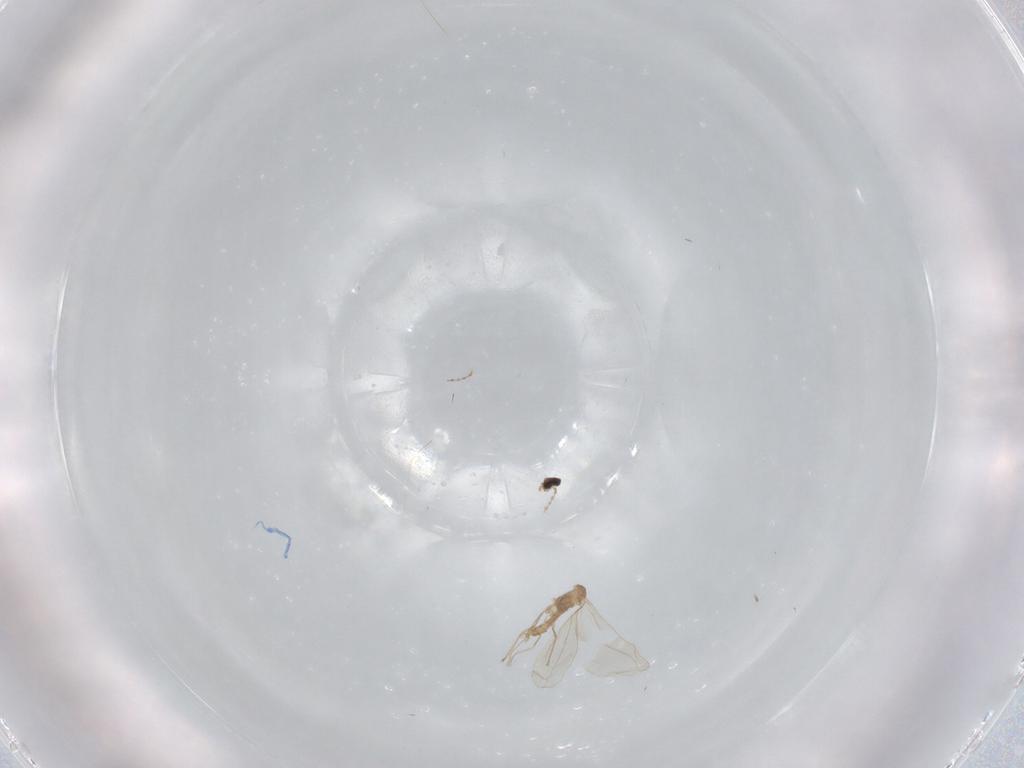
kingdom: Animalia
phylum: Arthropoda
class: Insecta
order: Diptera
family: Cecidomyiidae
